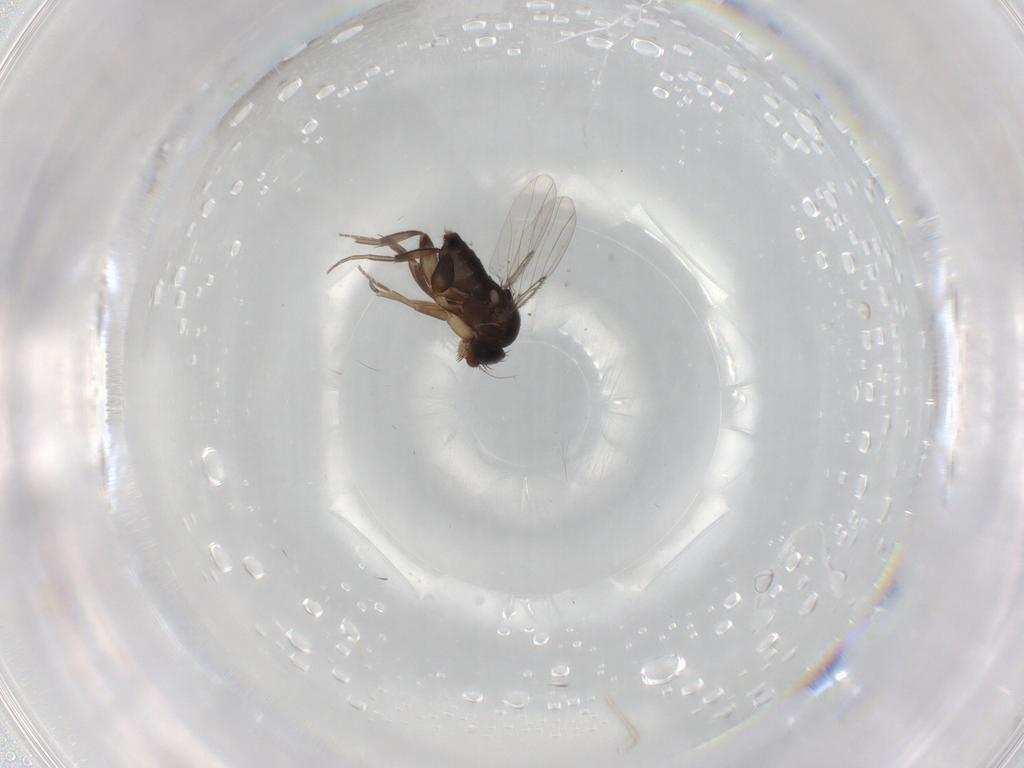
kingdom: Animalia
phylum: Arthropoda
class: Insecta
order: Diptera
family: Phoridae
